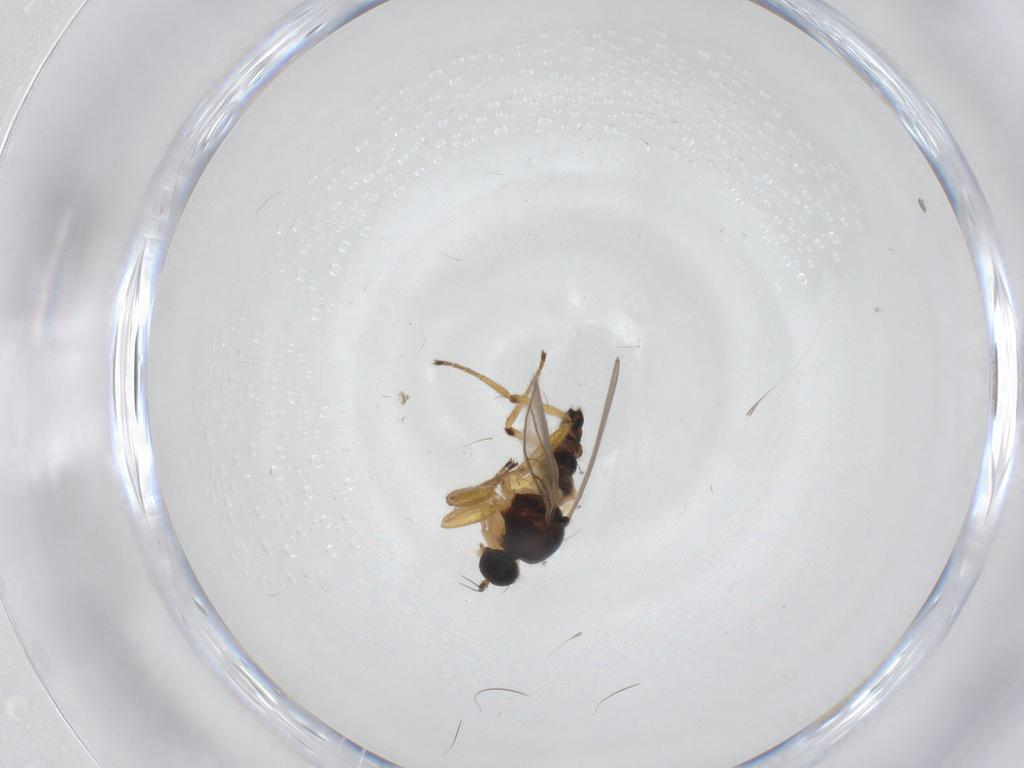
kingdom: Animalia
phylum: Arthropoda
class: Insecta
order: Diptera
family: Hybotidae
